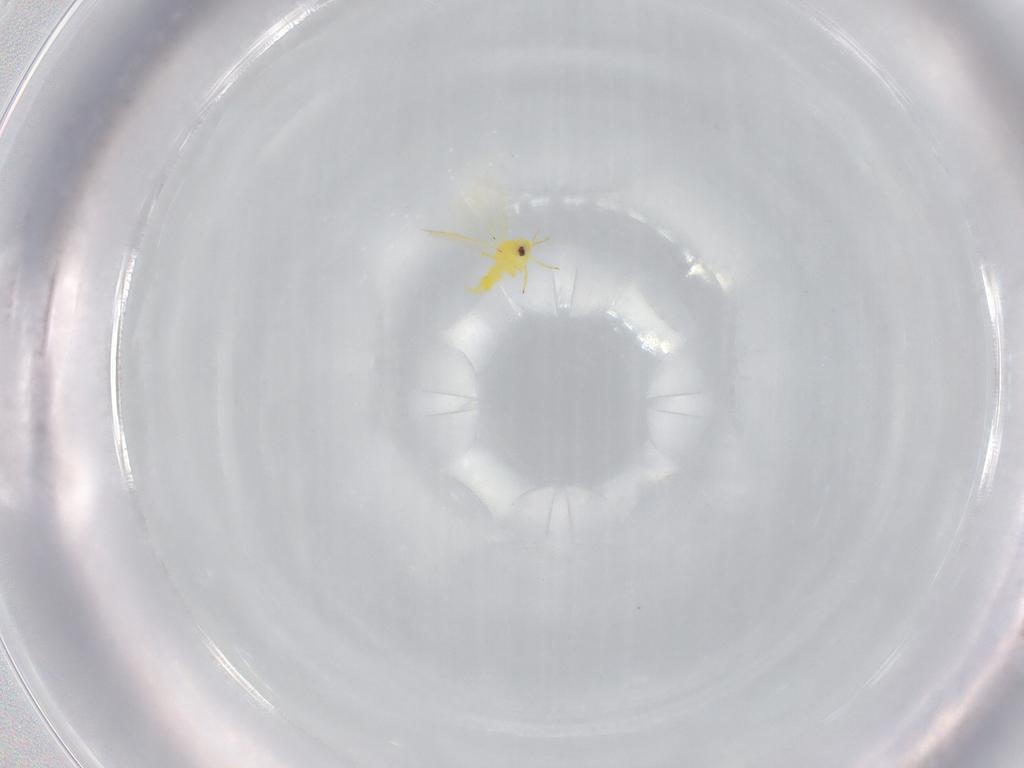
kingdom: Animalia
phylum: Arthropoda
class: Insecta
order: Hemiptera
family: Aleyrodidae
